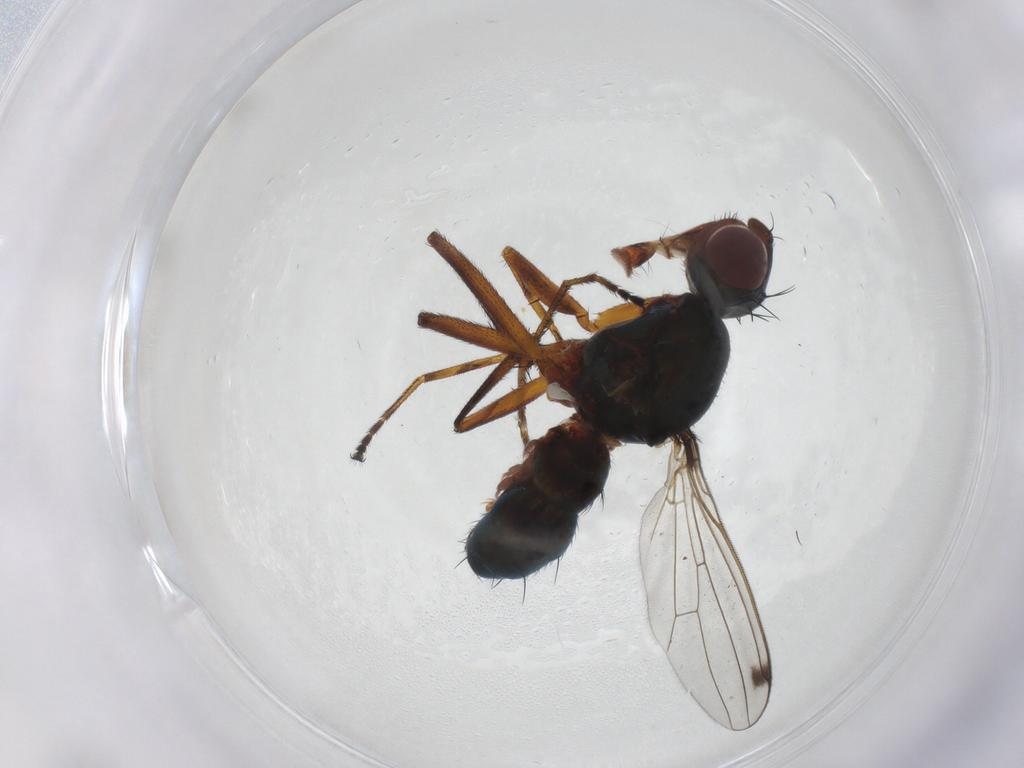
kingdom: Animalia
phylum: Arthropoda
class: Insecta
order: Diptera
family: Sepsidae
